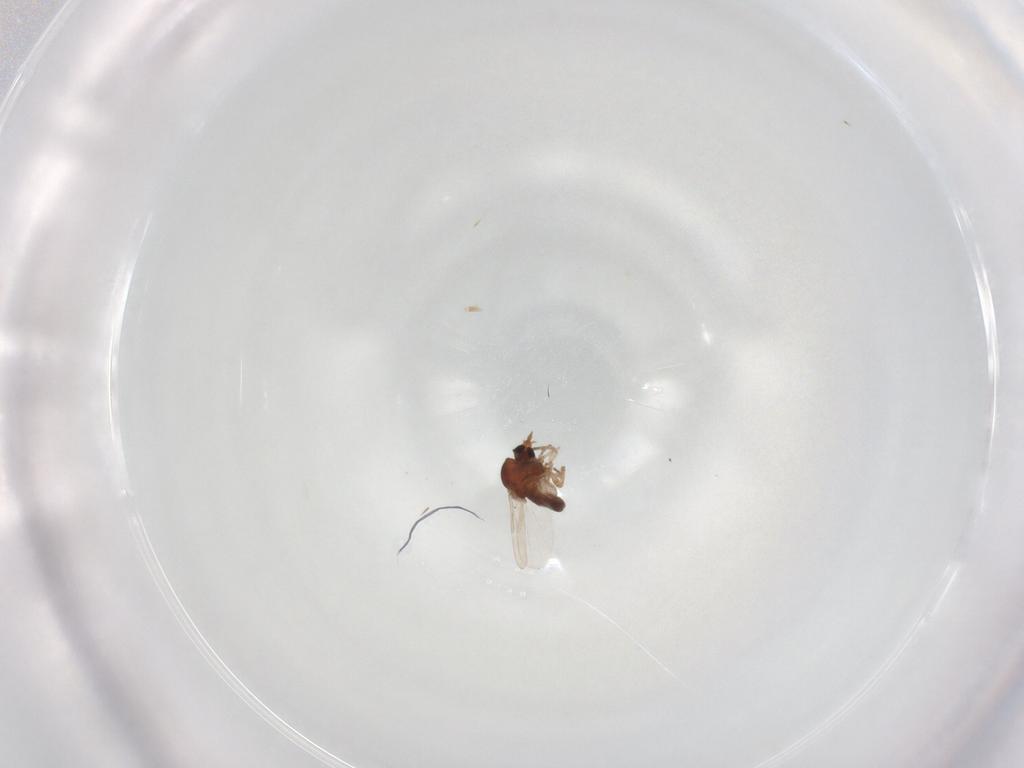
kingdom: Animalia
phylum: Arthropoda
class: Insecta
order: Diptera
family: Ceratopogonidae
